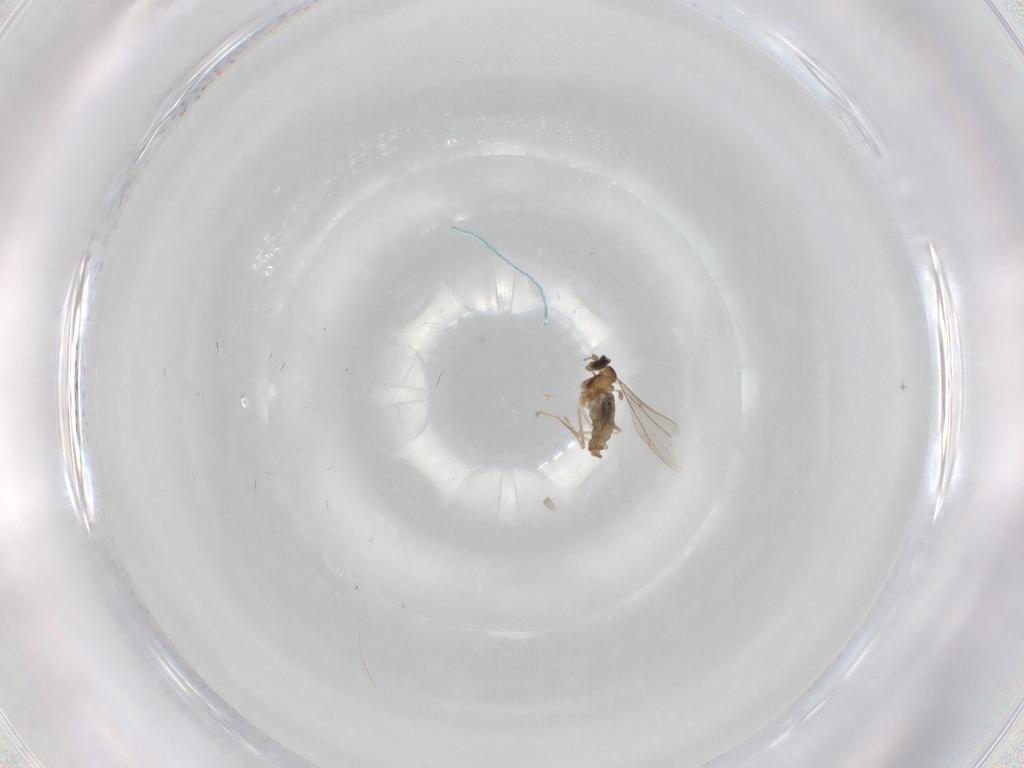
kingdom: Animalia
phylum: Arthropoda
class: Insecta
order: Diptera
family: Cecidomyiidae
